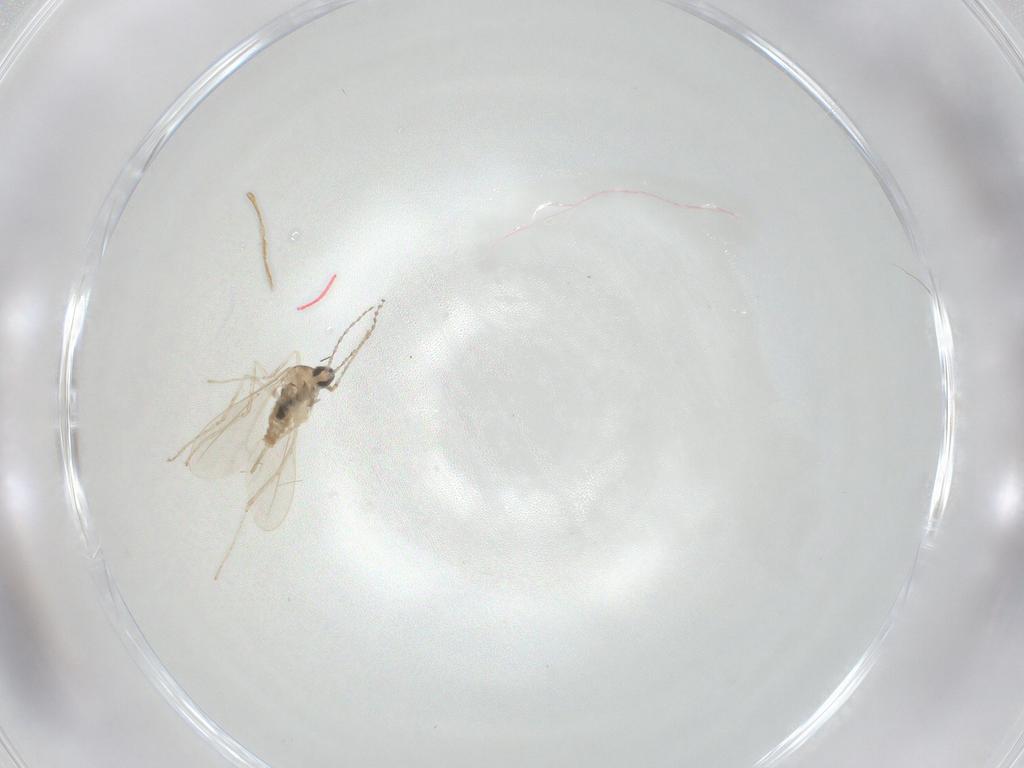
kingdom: Animalia
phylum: Arthropoda
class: Insecta
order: Diptera
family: Cecidomyiidae
